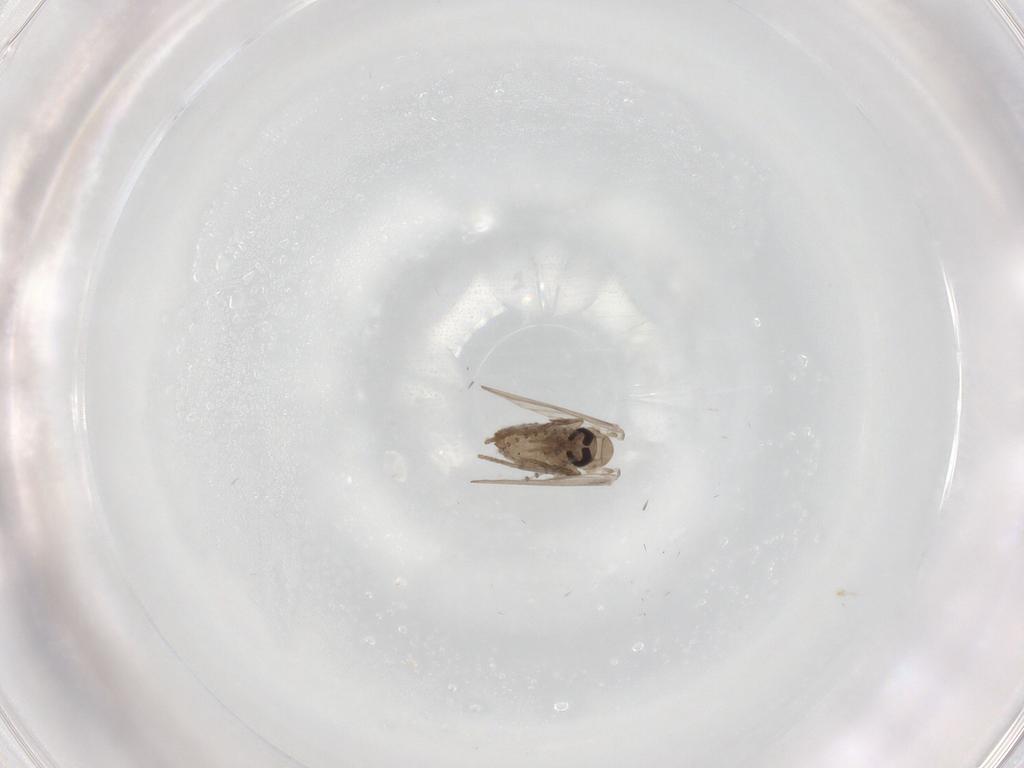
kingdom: Animalia
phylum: Arthropoda
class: Insecta
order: Diptera
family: Psychodidae
